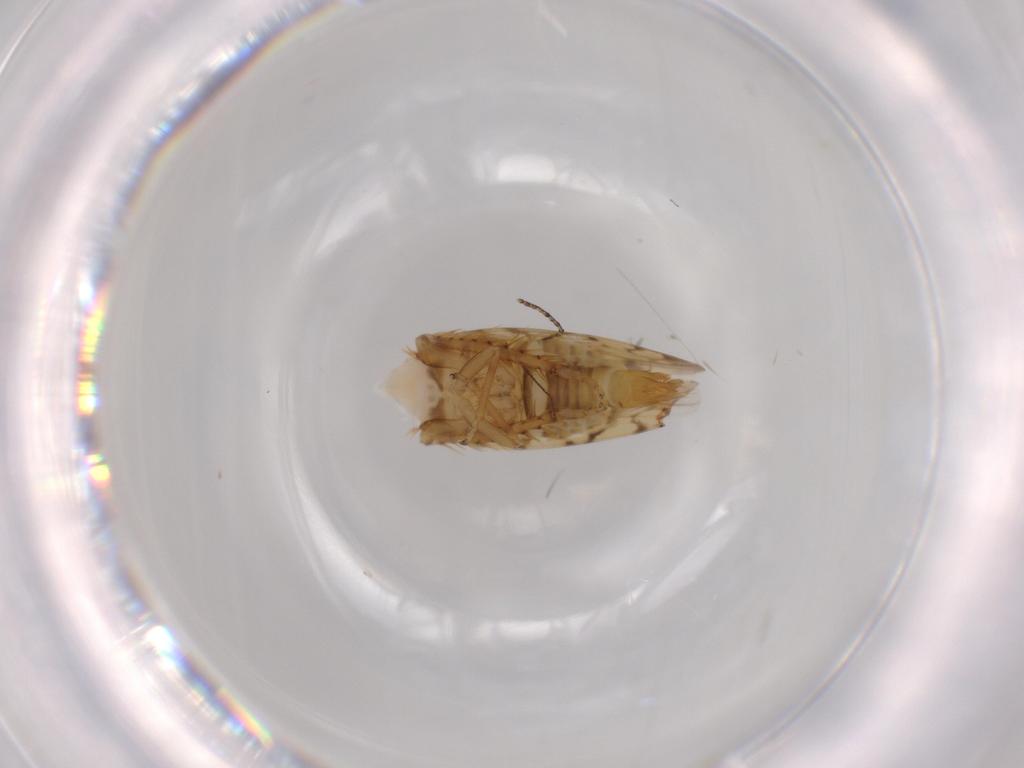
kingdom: Animalia
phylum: Arthropoda
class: Insecta
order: Hemiptera
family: Cicadellidae
